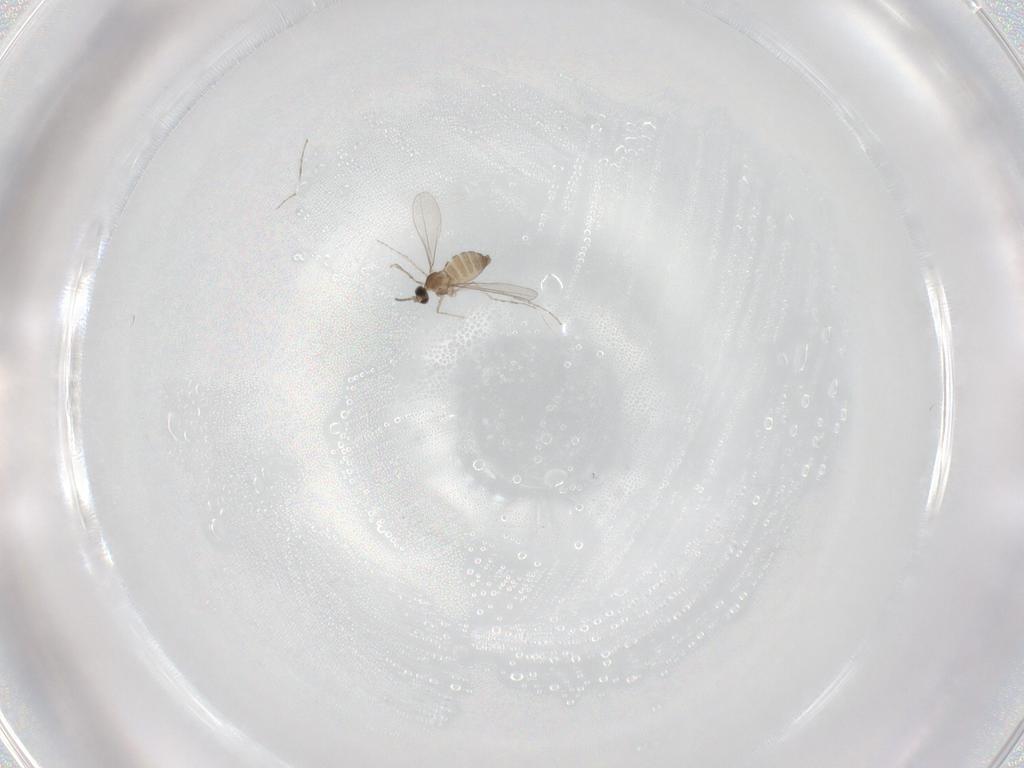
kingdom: Animalia
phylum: Arthropoda
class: Insecta
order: Diptera
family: Cecidomyiidae
